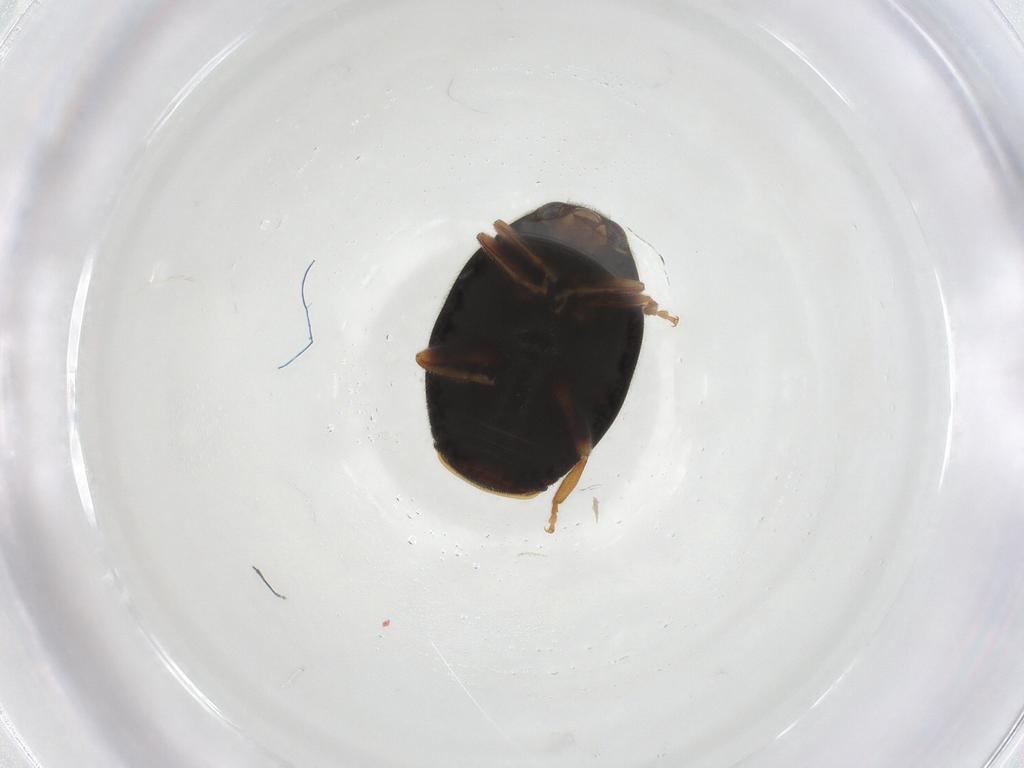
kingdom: Animalia
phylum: Arthropoda
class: Insecta
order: Coleoptera
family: Coccinellidae
